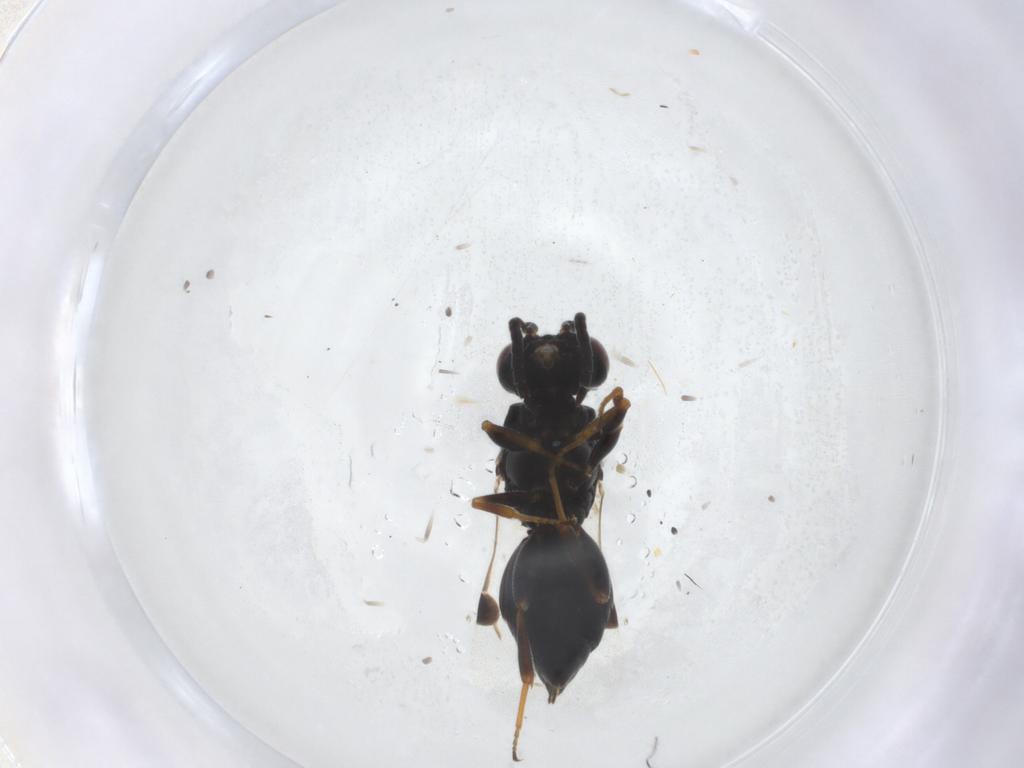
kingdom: Animalia
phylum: Arthropoda
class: Insecta
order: Hymenoptera
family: Megaspilidae
